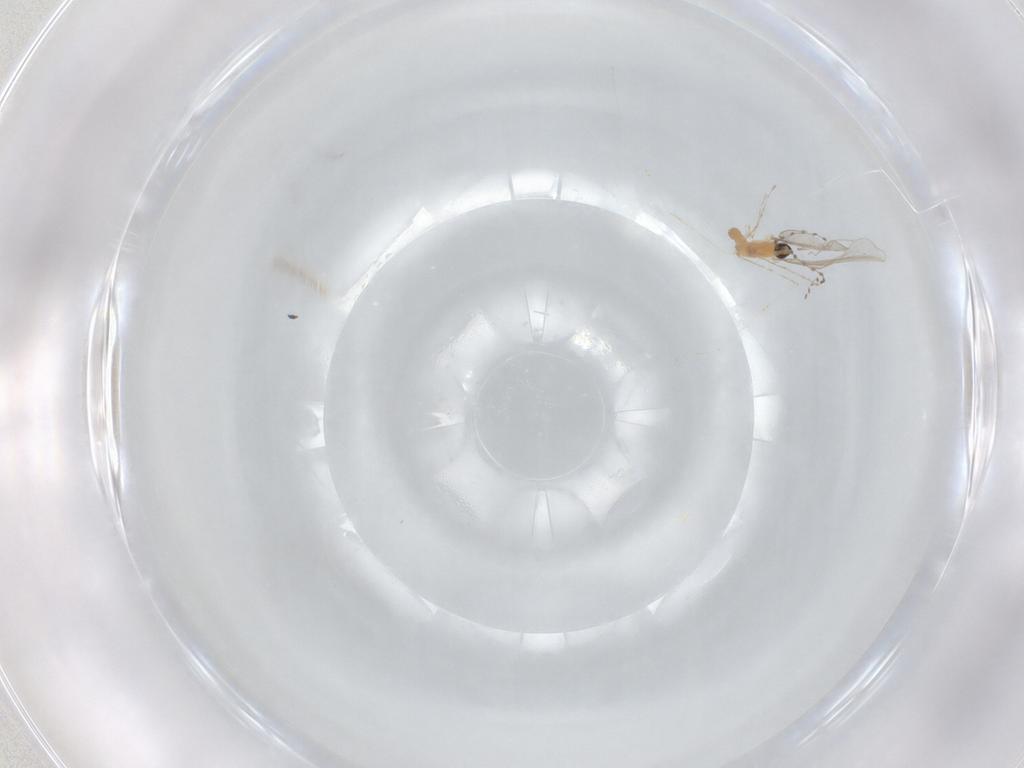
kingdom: Animalia
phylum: Arthropoda
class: Insecta
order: Diptera
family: Cecidomyiidae
